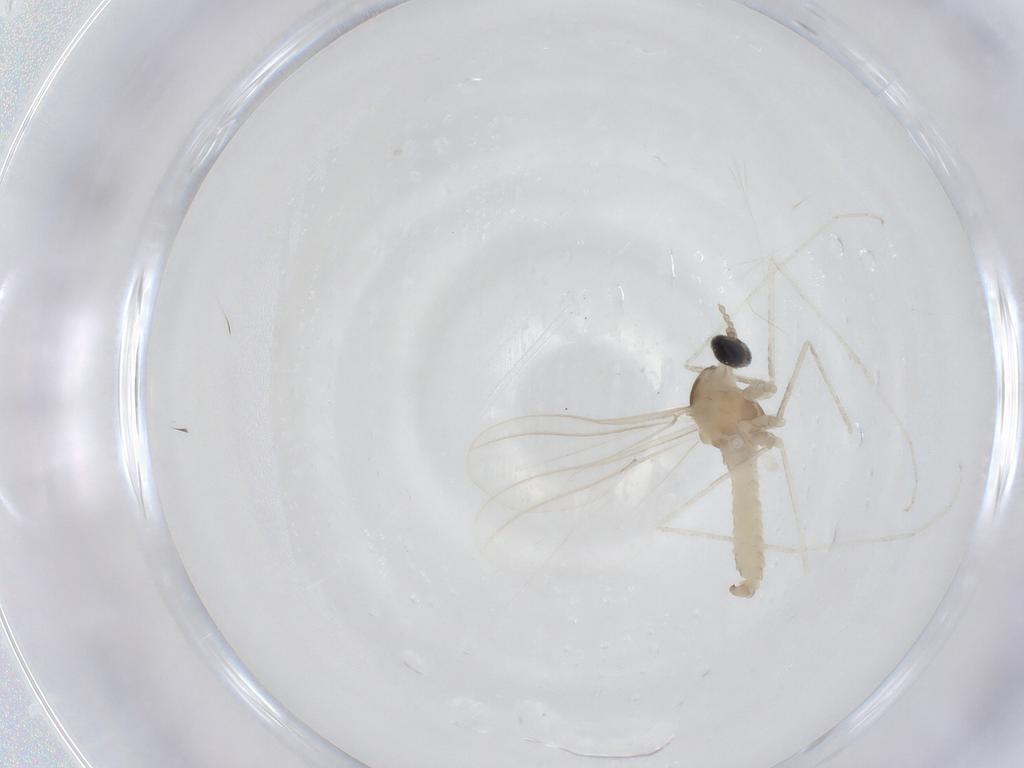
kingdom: Animalia
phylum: Arthropoda
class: Insecta
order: Diptera
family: Cecidomyiidae
